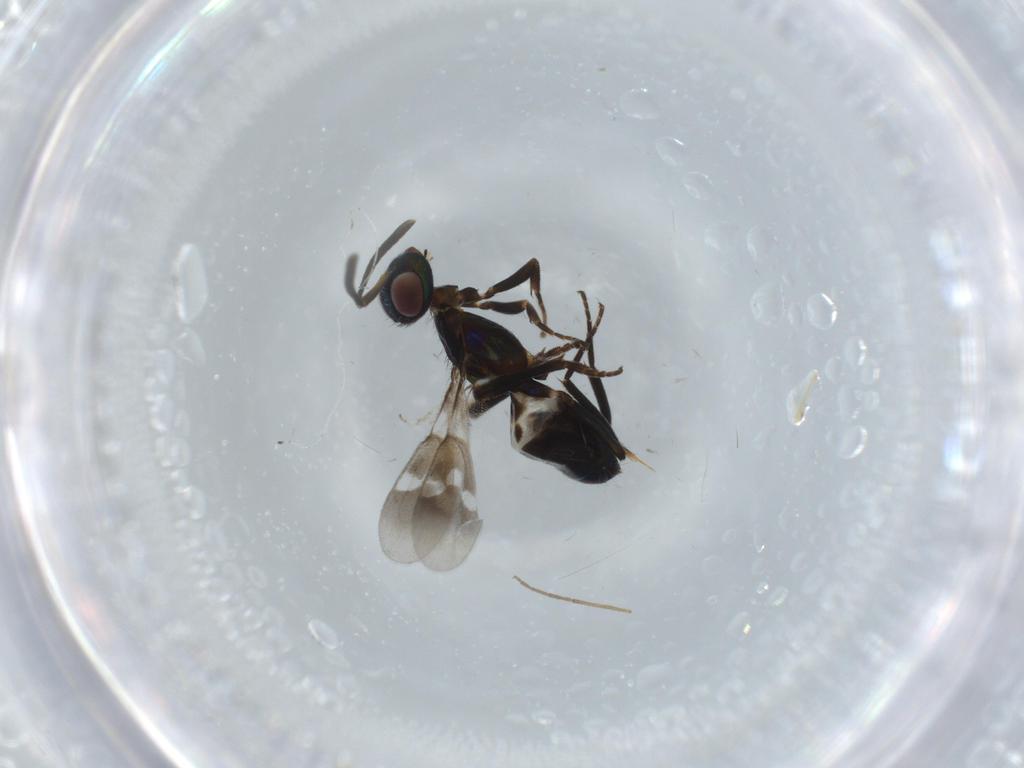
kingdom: Animalia
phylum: Arthropoda
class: Insecta
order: Hymenoptera
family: Diapriidae
